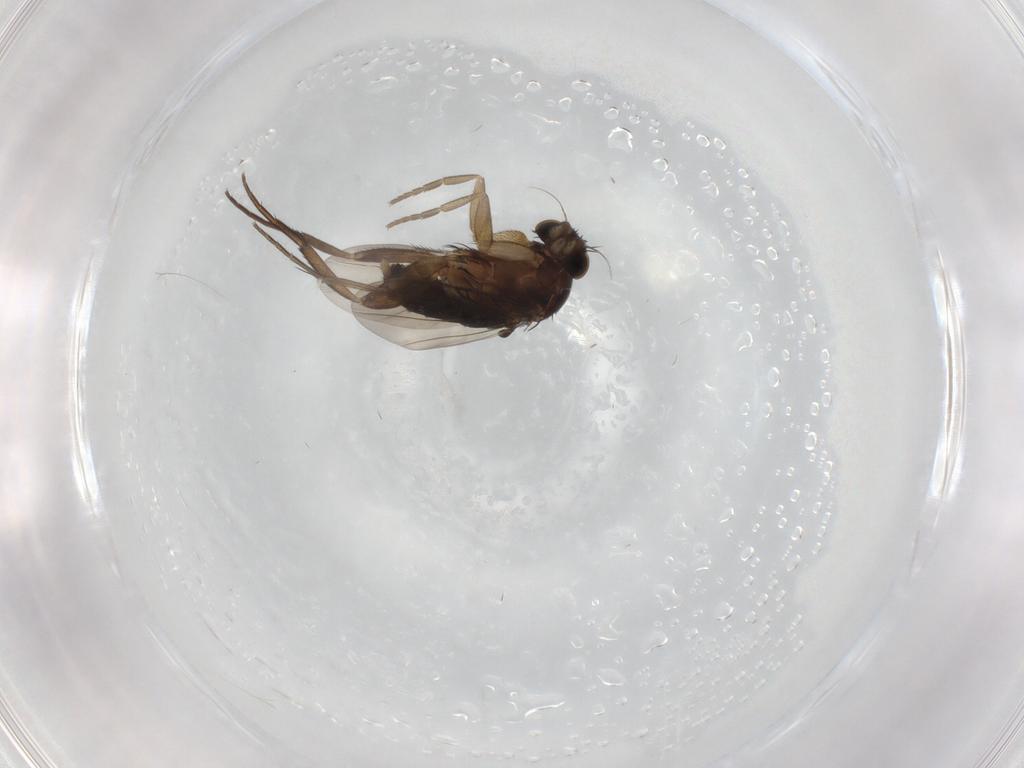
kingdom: Animalia
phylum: Arthropoda
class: Insecta
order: Diptera
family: Phoridae
